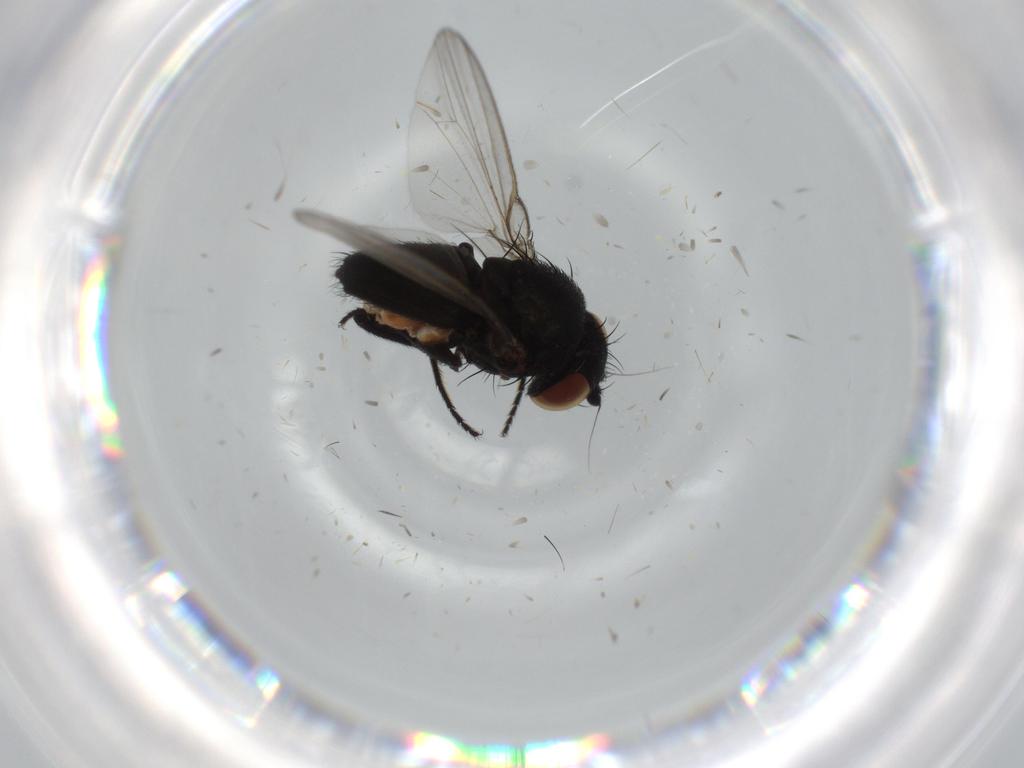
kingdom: Animalia
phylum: Arthropoda
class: Insecta
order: Diptera
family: Milichiidae
